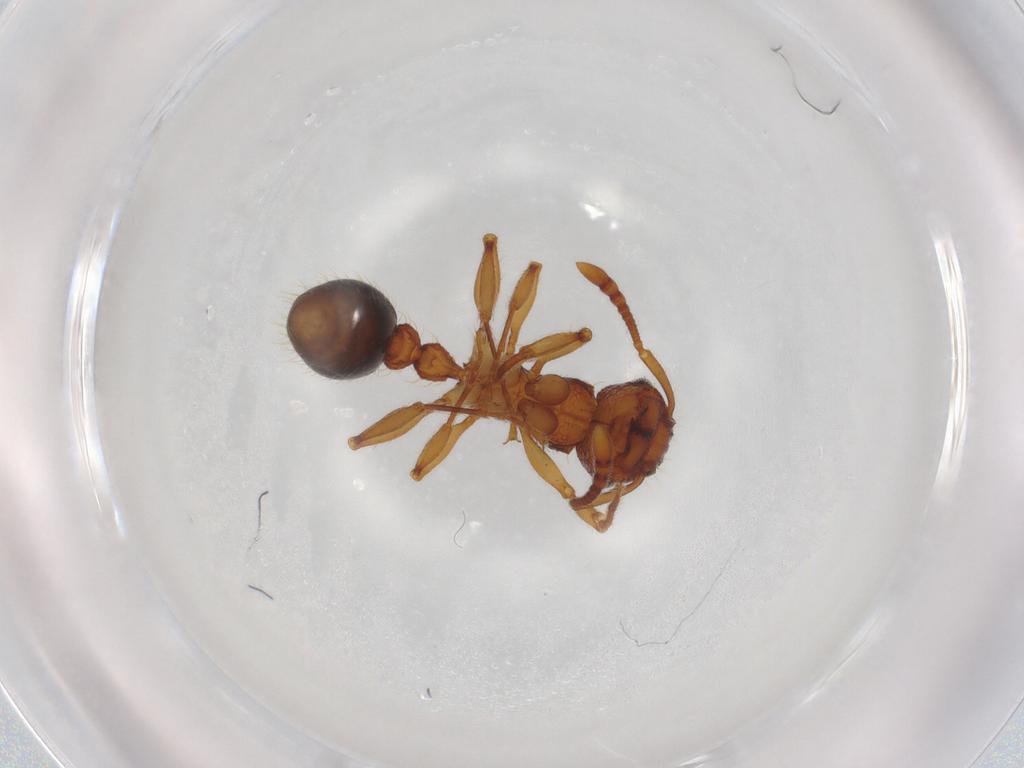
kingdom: Animalia
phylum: Arthropoda
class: Insecta
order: Hymenoptera
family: Formicidae
